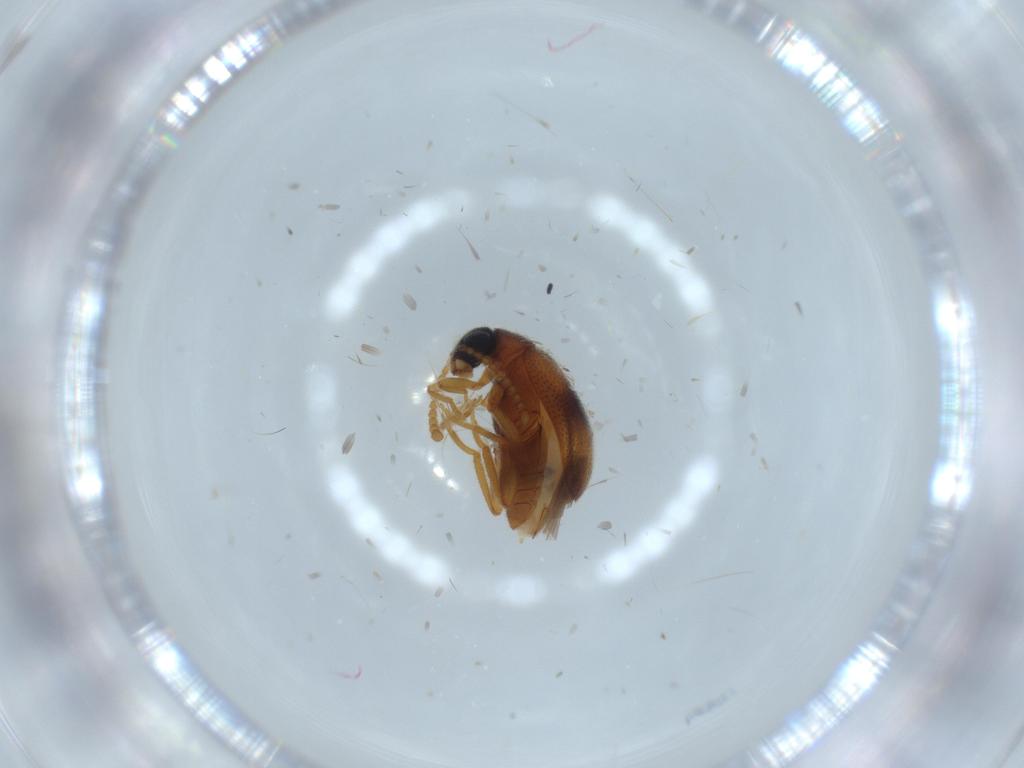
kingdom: Animalia
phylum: Arthropoda
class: Insecta
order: Coleoptera
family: Aderidae
